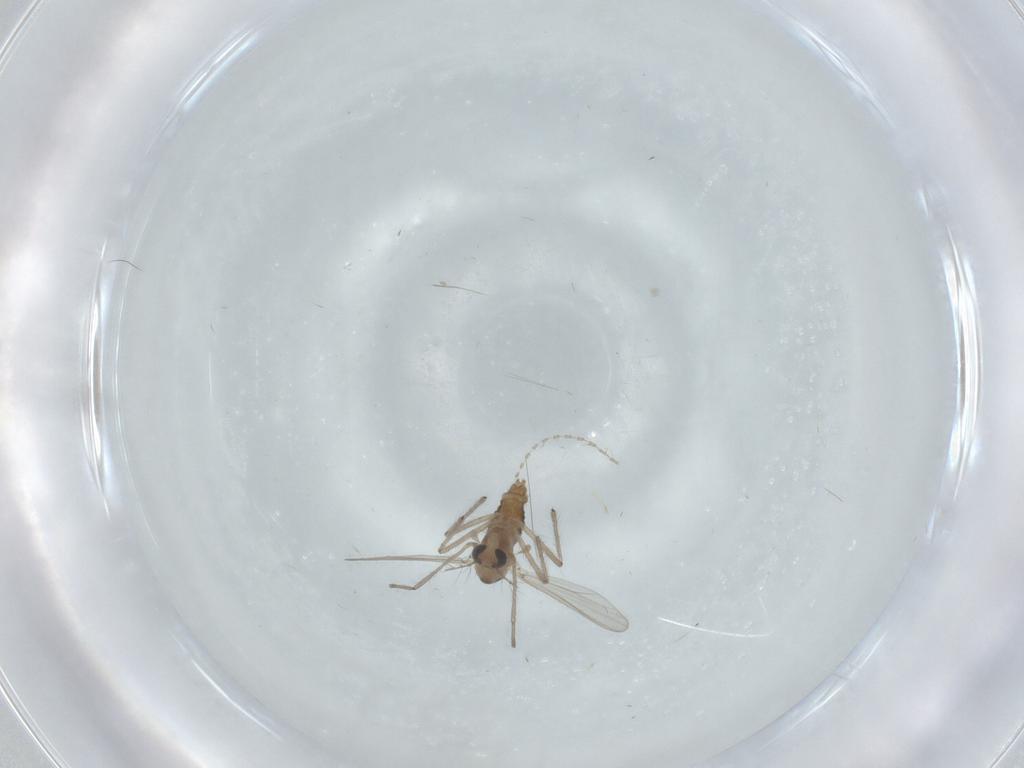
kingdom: Animalia
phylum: Arthropoda
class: Insecta
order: Diptera
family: Chironomidae
